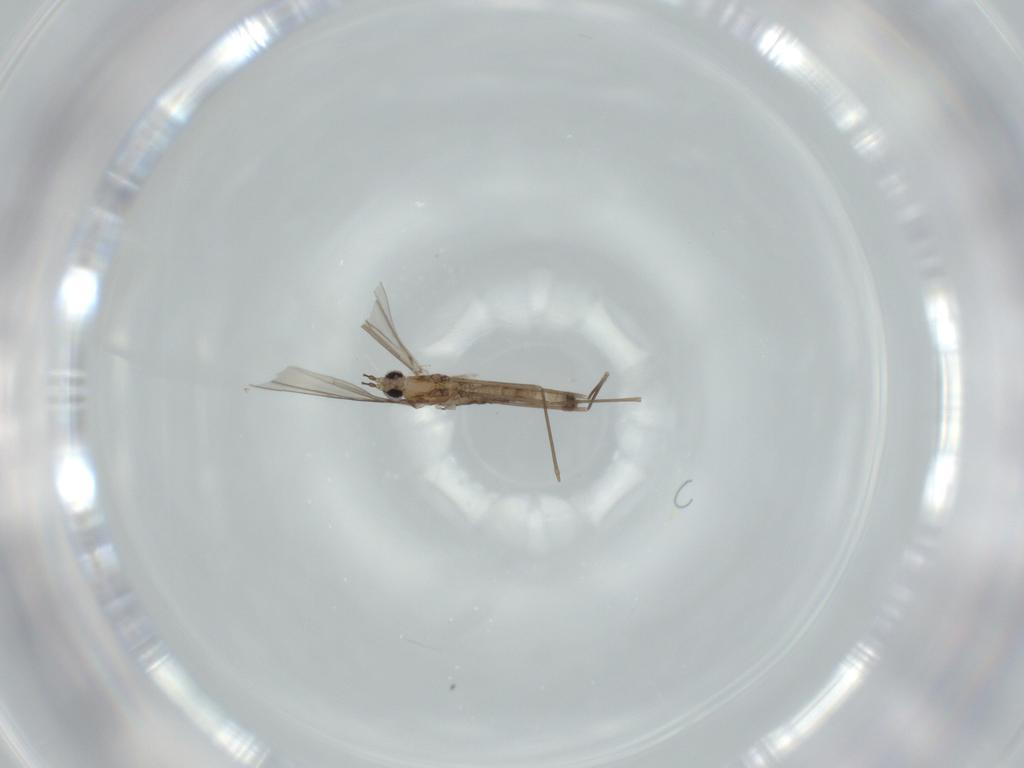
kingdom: Animalia
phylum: Arthropoda
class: Insecta
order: Diptera
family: Cecidomyiidae
